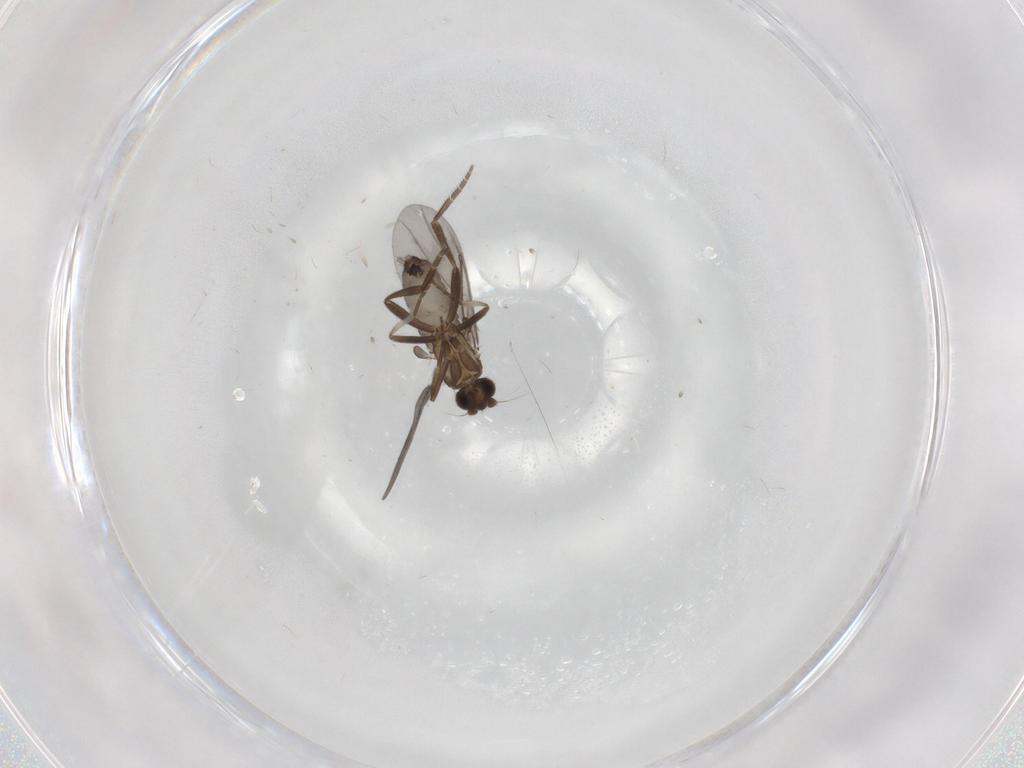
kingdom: Animalia
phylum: Arthropoda
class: Insecta
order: Diptera
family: Phoridae
